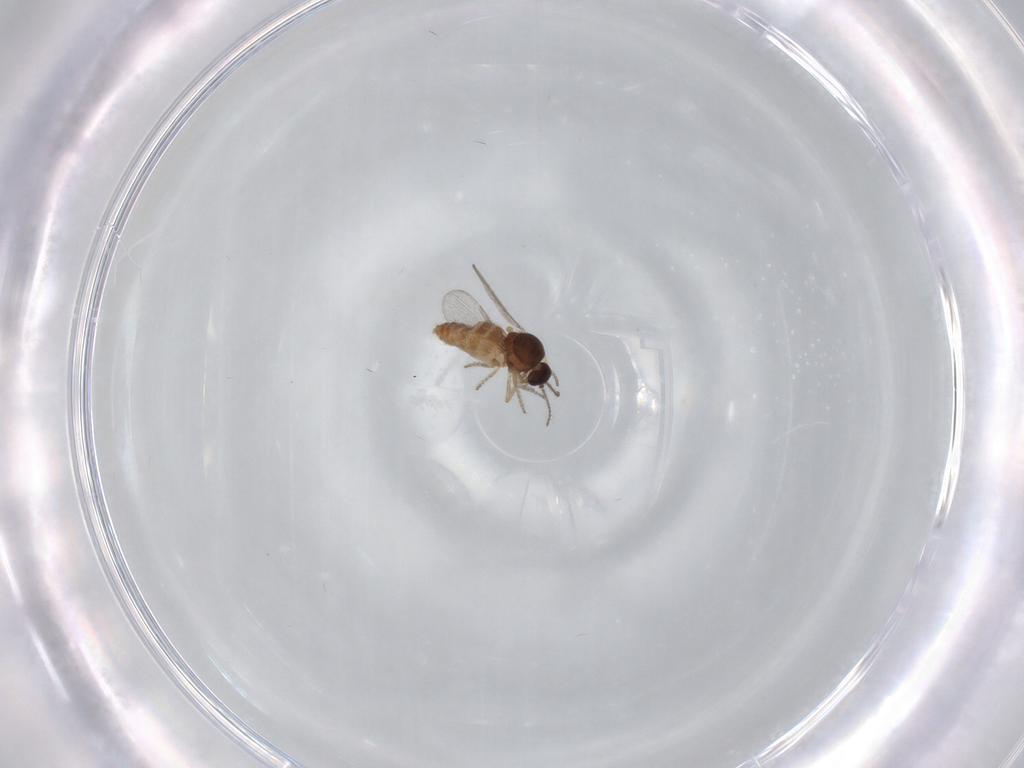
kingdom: Animalia
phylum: Arthropoda
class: Insecta
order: Diptera
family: Ceratopogonidae
